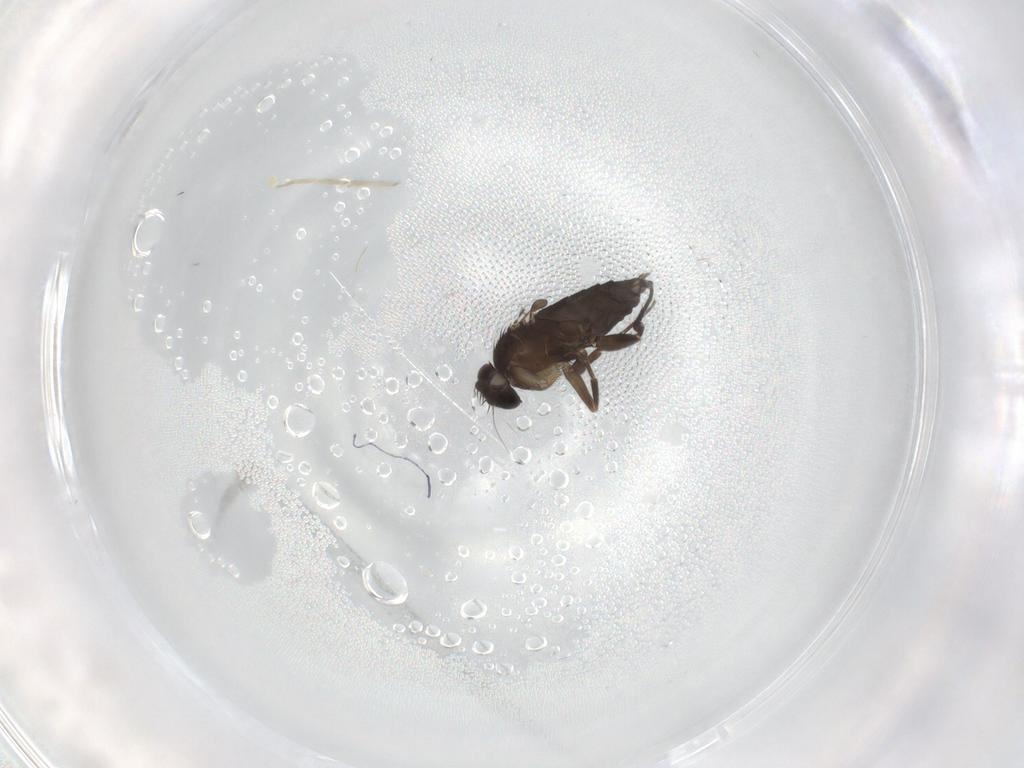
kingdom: Animalia
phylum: Arthropoda
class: Insecta
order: Diptera
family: Phoridae
